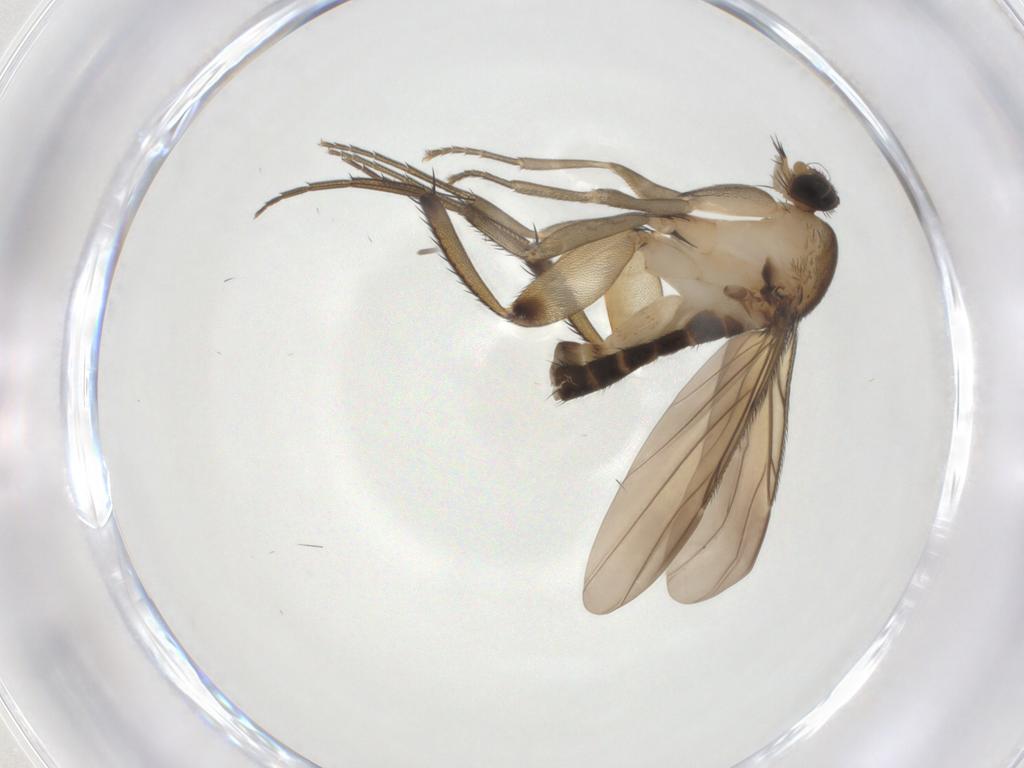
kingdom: Animalia
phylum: Arthropoda
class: Insecta
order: Diptera
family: Phoridae
